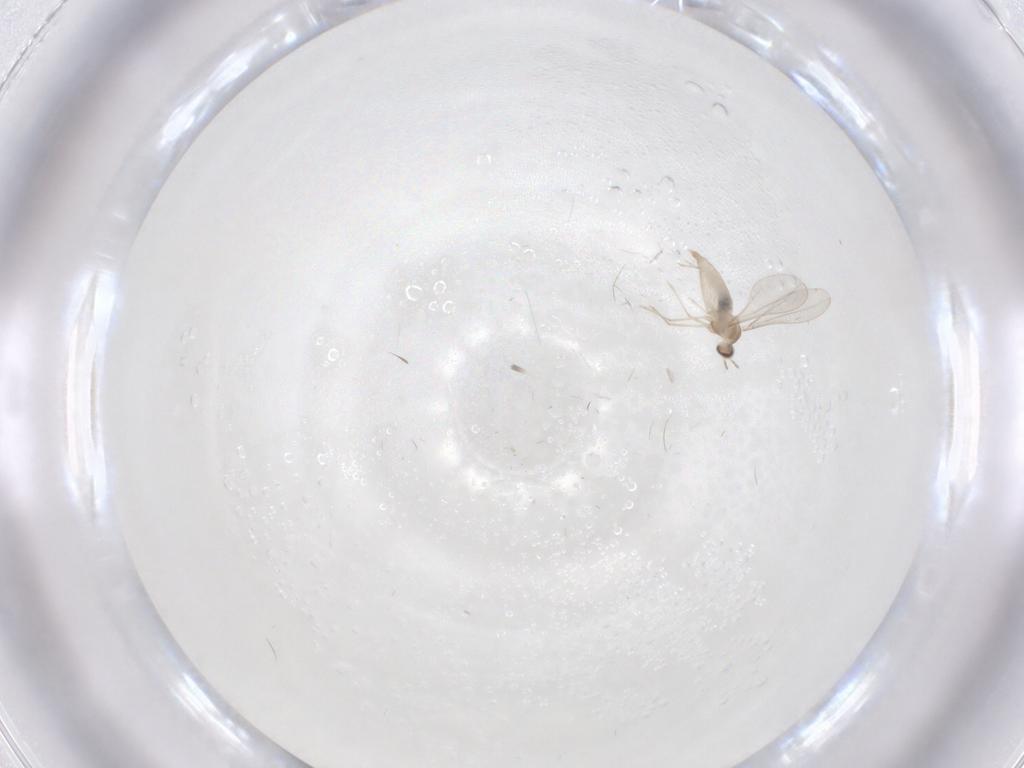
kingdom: Animalia
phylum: Arthropoda
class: Insecta
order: Diptera
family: Cecidomyiidae
